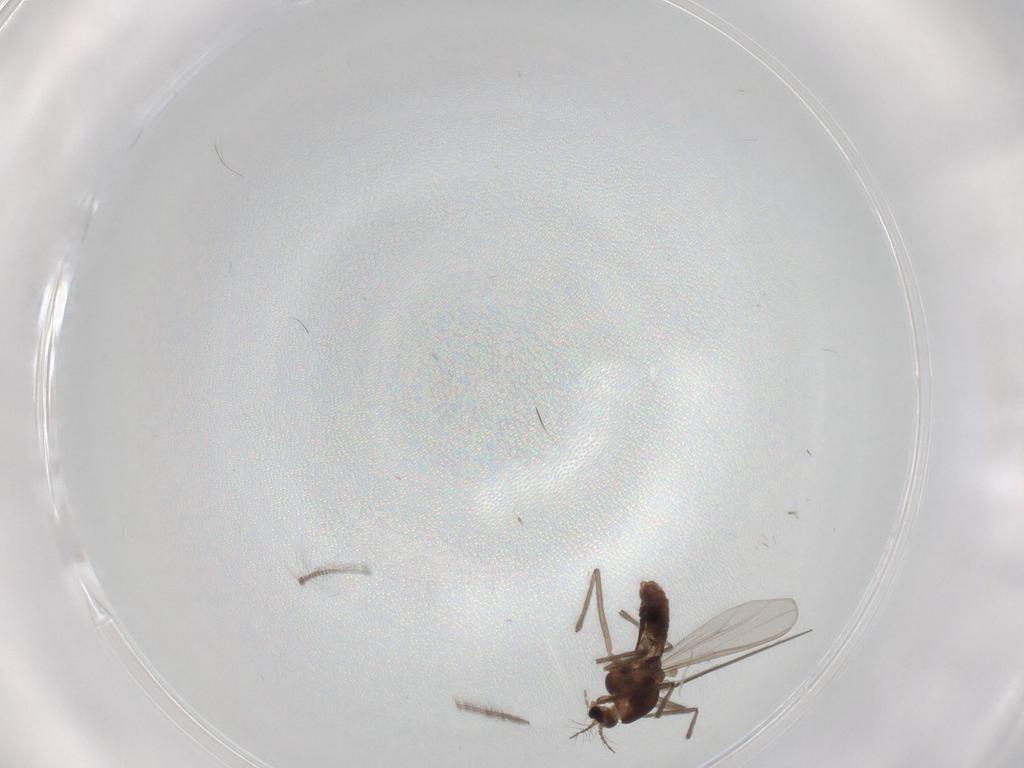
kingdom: Animalia
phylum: Arthropoda
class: Insecta
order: Diptera
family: Chironomidae
